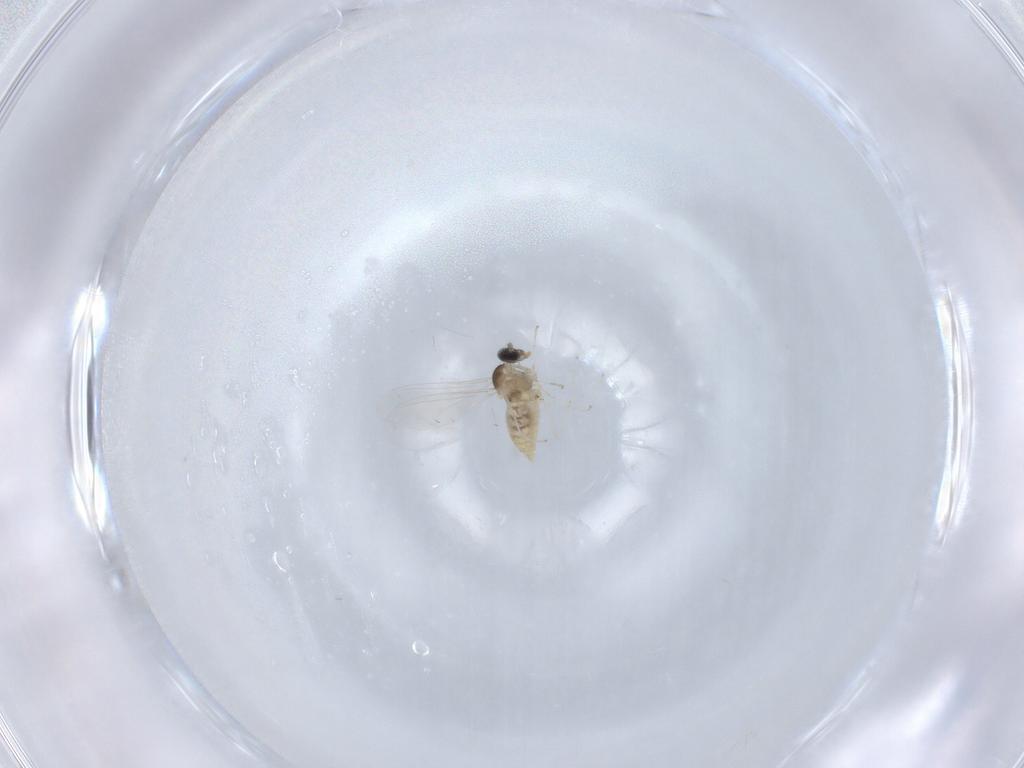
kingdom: Animalia
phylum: Arthropoda
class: Insecta
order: Diptera
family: Cecidomyiidae
